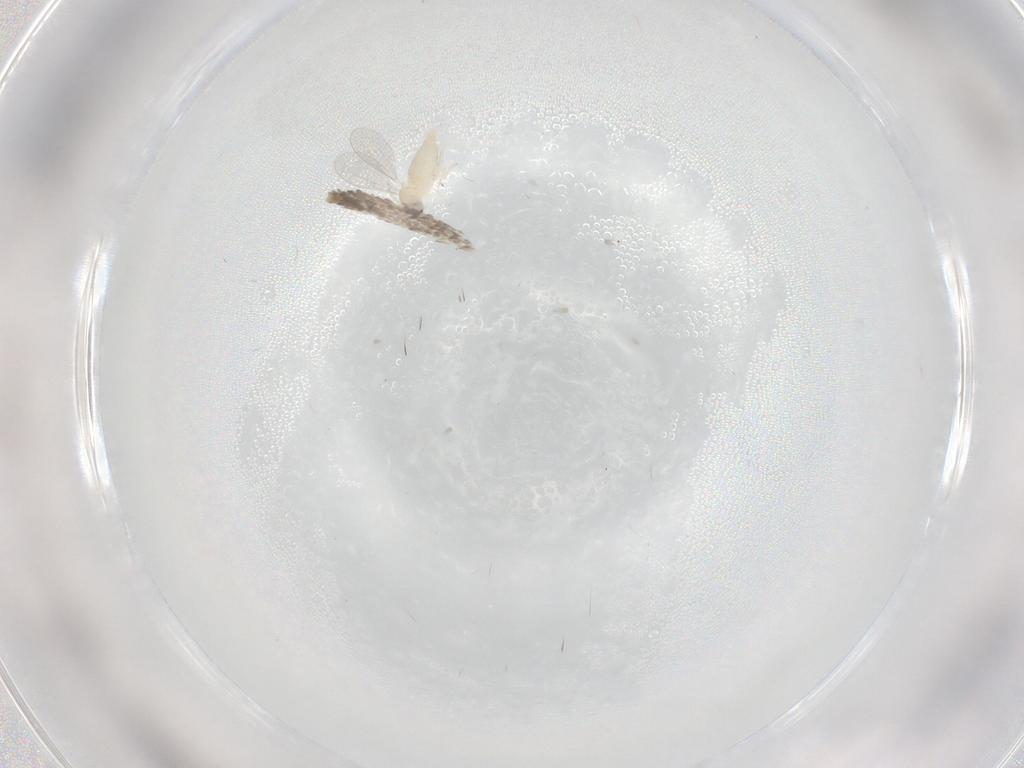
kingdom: Animalia
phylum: Arthropoda
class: Insecta
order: Diptera
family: Cecidomyiidae
